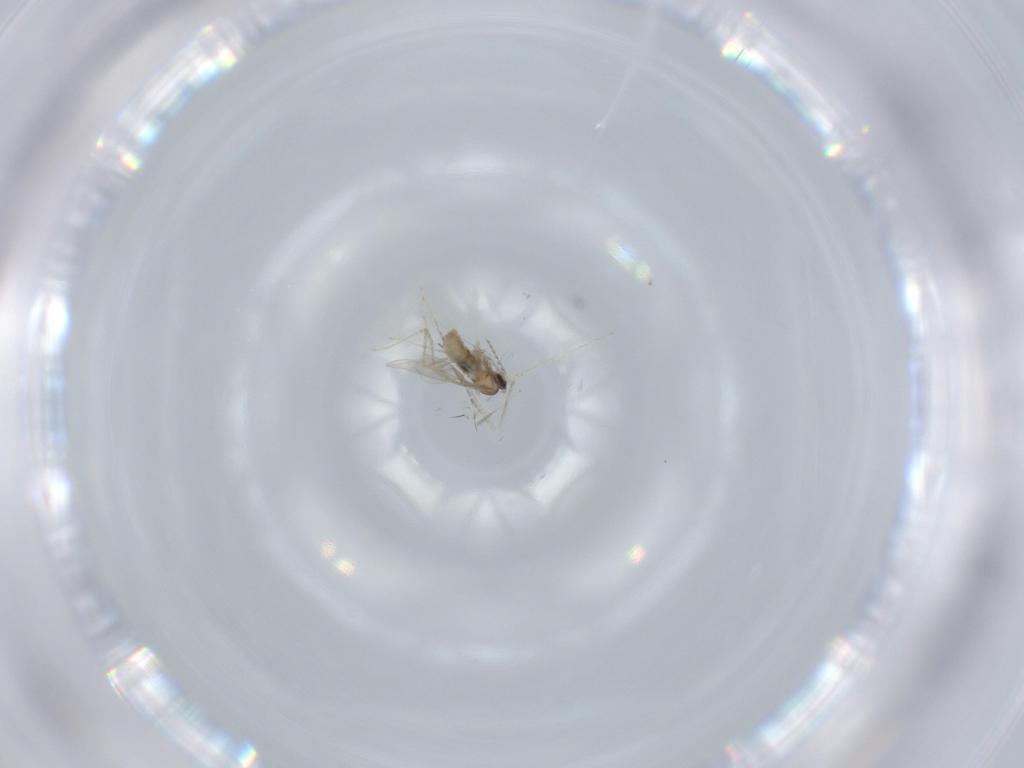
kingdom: Animalia
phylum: Arthropoda
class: Insecta
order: Diptera
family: Cecidomyiidae
